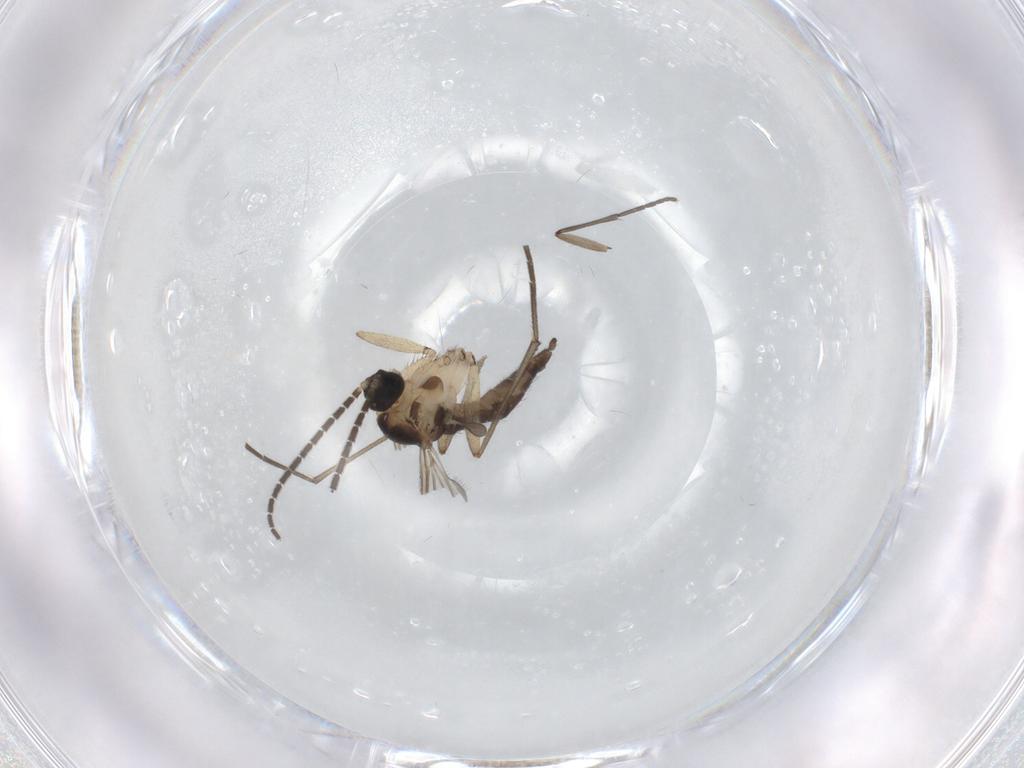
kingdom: Animalia
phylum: Arthropoda
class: Insecta
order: Diptera
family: Sciaridae
